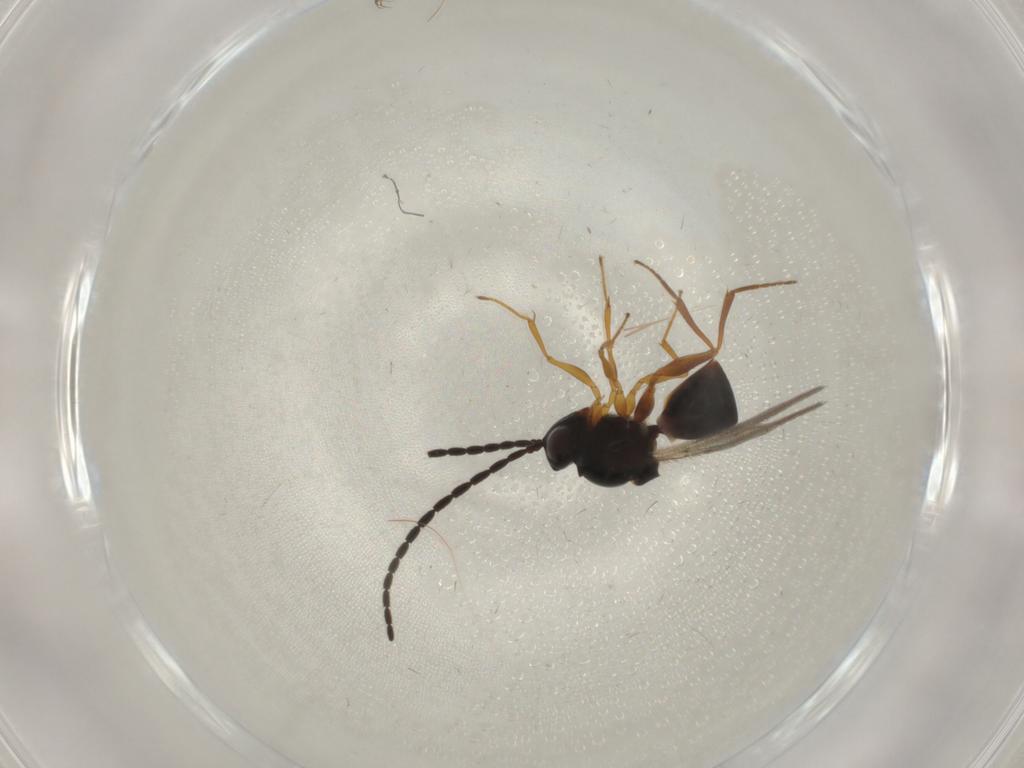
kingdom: Animalia
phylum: Arthropoda
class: Insecta
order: Hymenoptera
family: Figitidae
